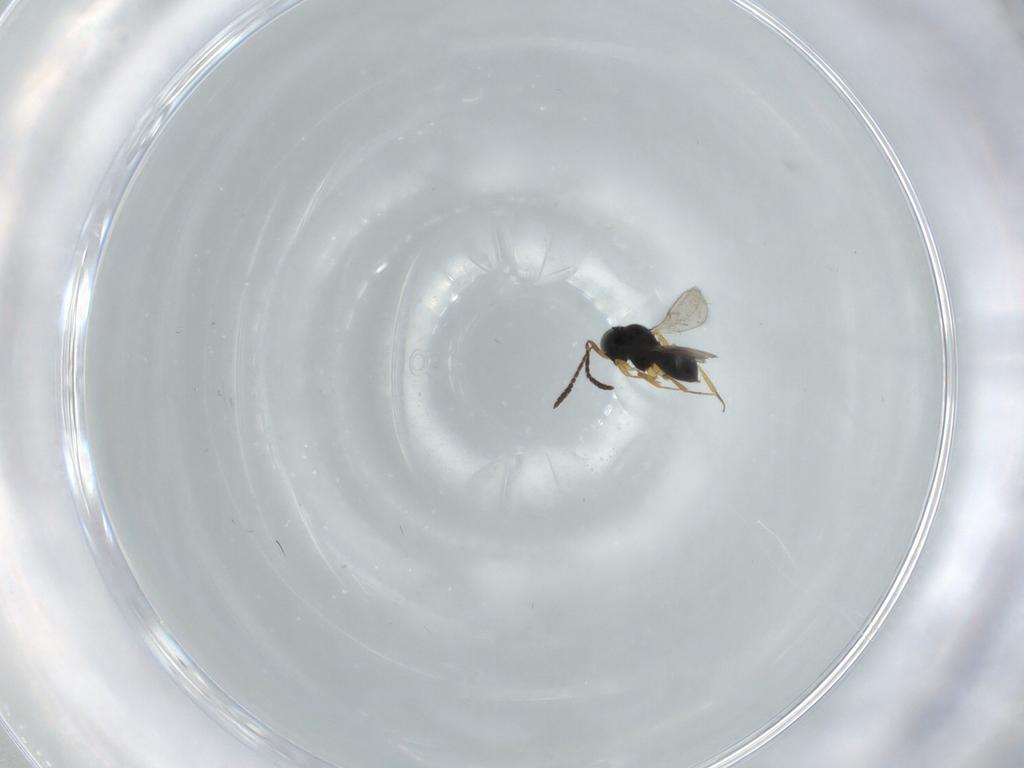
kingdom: Animalia
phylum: Arthropoda
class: Insecta
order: Hymenoptera
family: Scelionidae
